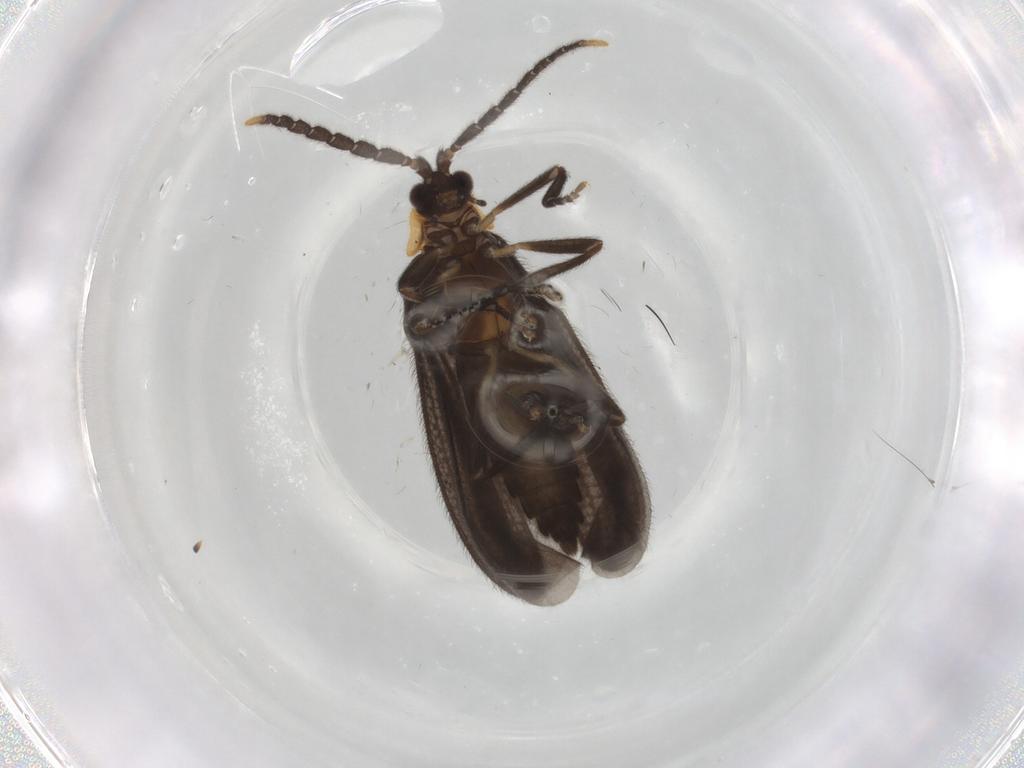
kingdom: Animalia
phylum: Arthropoda
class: Insecta
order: Coleoptera
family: Lycidae
